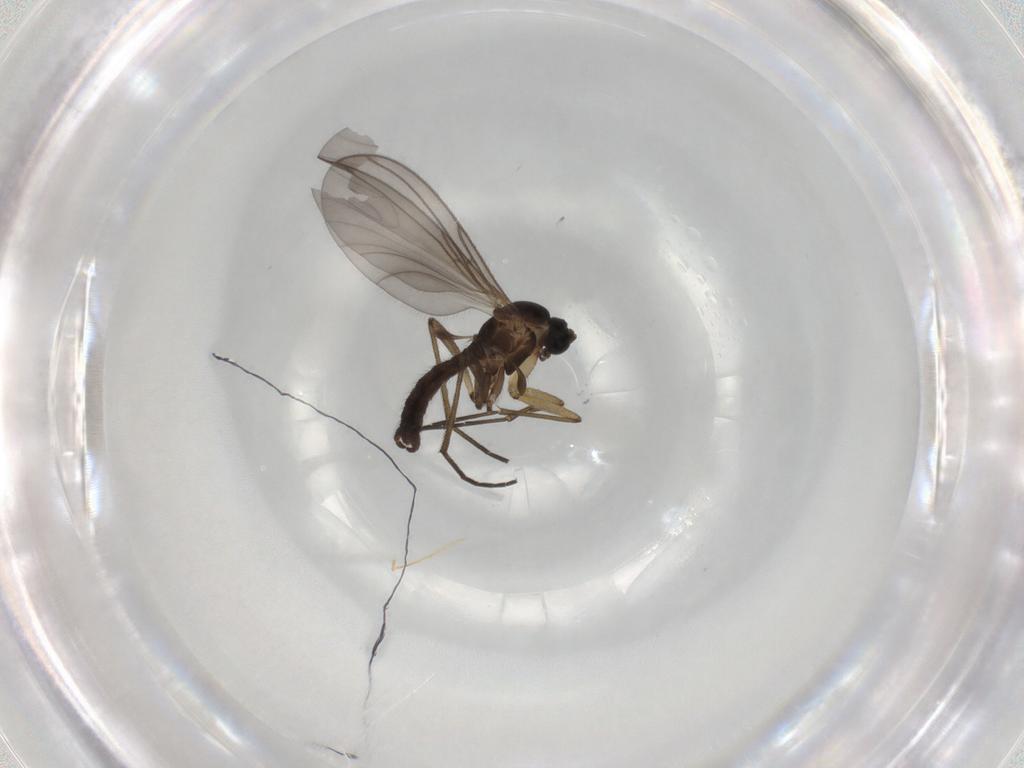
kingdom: Animalia
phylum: Arthropoda
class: Insecta
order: Diptera
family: Sciaridae
